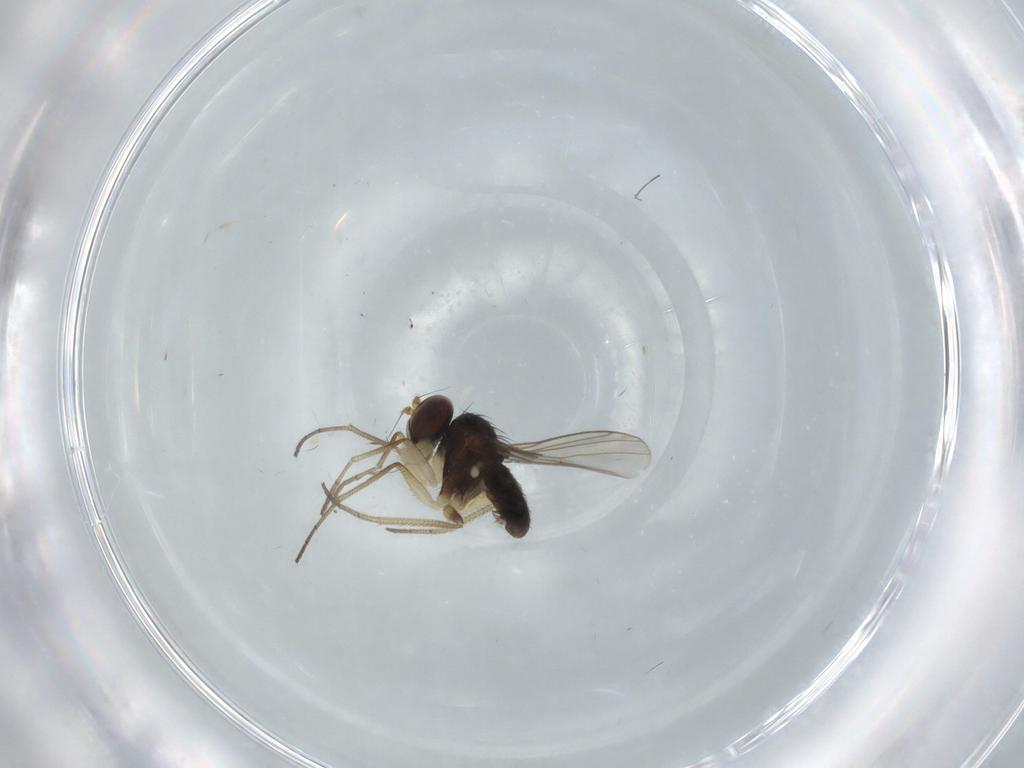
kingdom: Animalia
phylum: Arthropoda
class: Insecta
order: Diptera
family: Dolichopodidae
